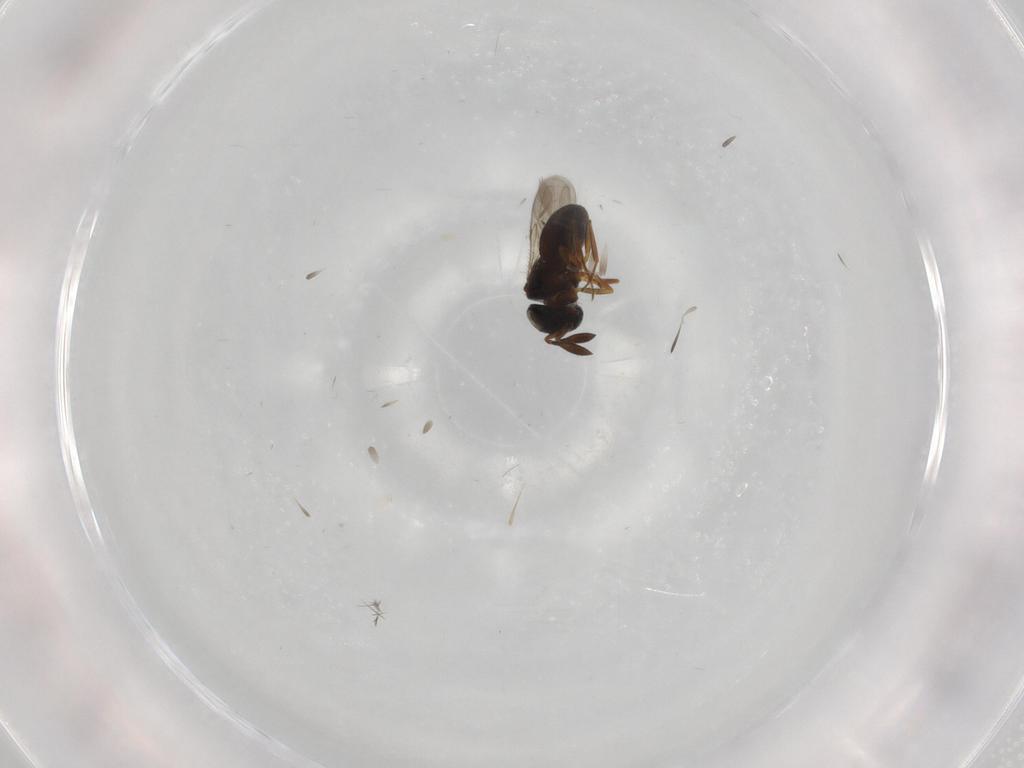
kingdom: Animalia
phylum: Arthropoda
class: Insecta
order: Coleoptera
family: Curculionidae
